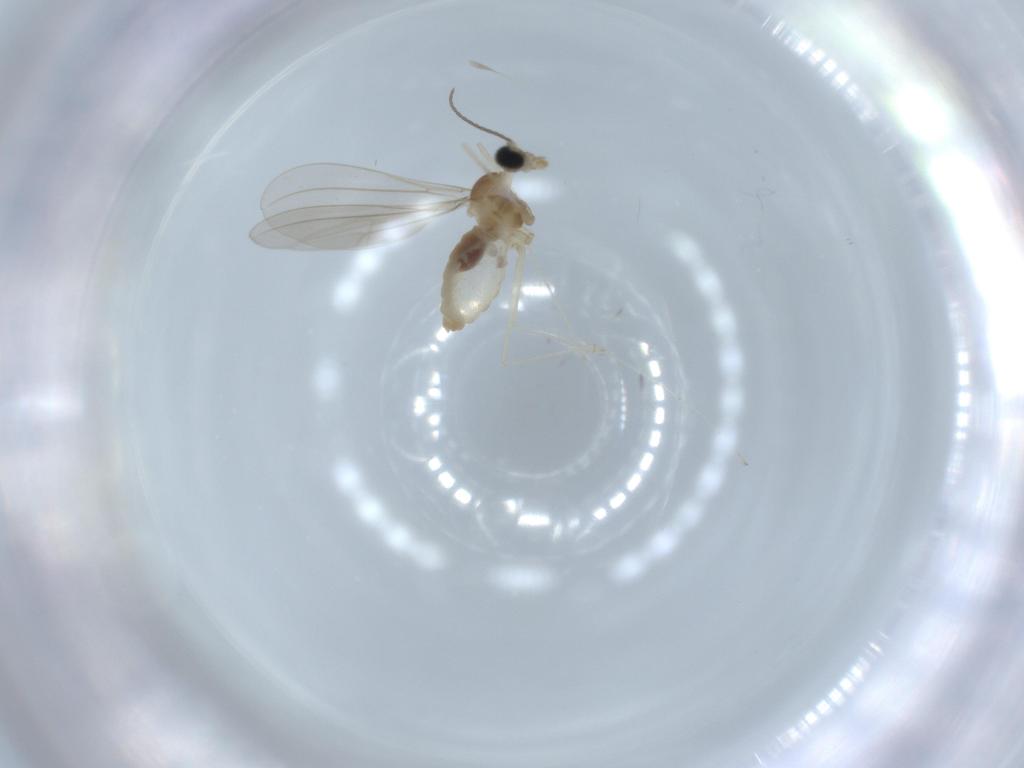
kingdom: Animalia
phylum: Arthropoda
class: Insecta
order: Diptera
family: Cecidomyiidae
